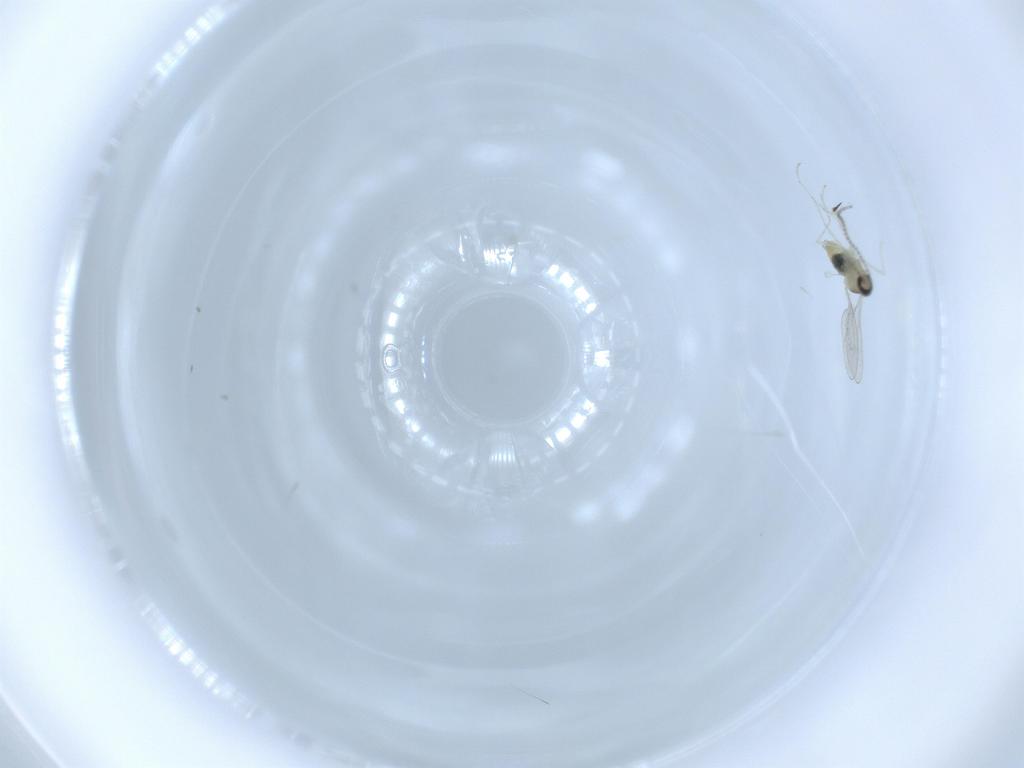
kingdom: Animalia
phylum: Arthropoda
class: Insecta
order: Diptera
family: Cecidomyiidae
